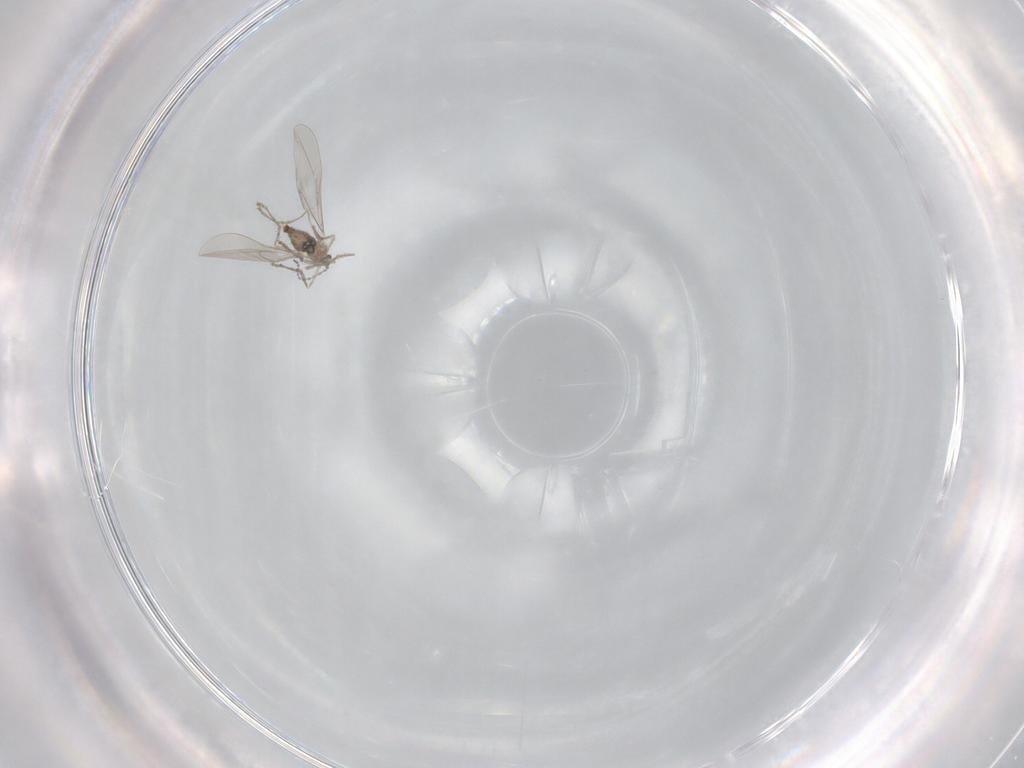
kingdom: Animalia
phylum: Arthropoda
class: Insecta
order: Diptera
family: Cecidomyiidae
